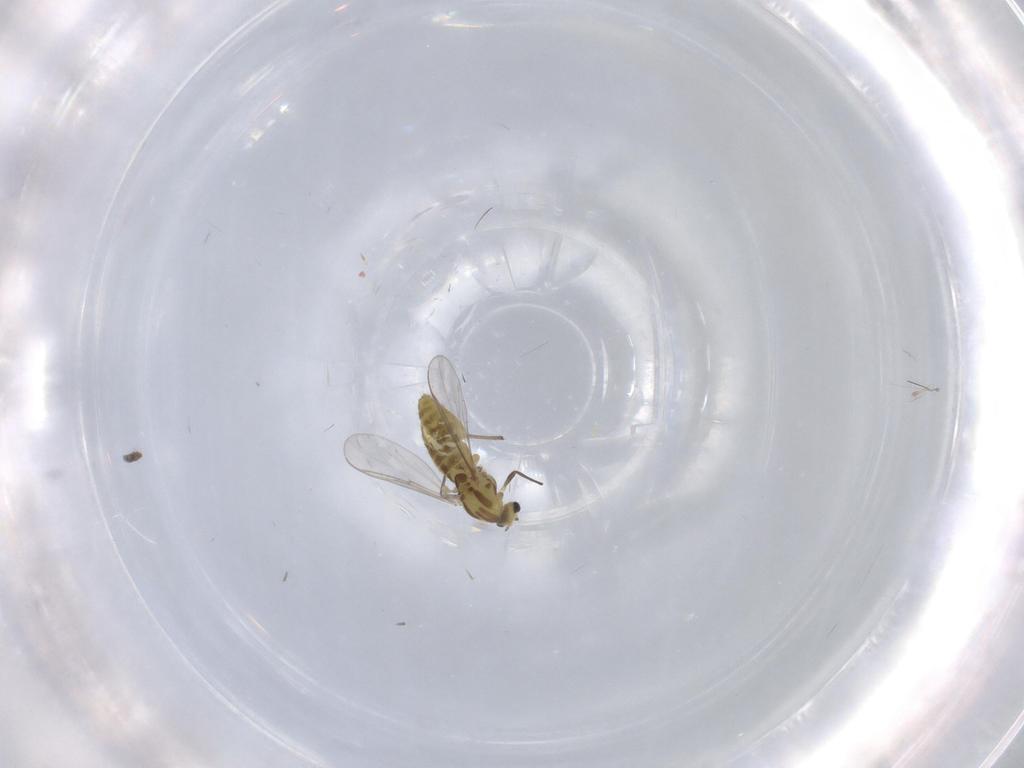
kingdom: Animalia
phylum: Arthropoda
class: Insecta
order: Diptera
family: Chironomidae
